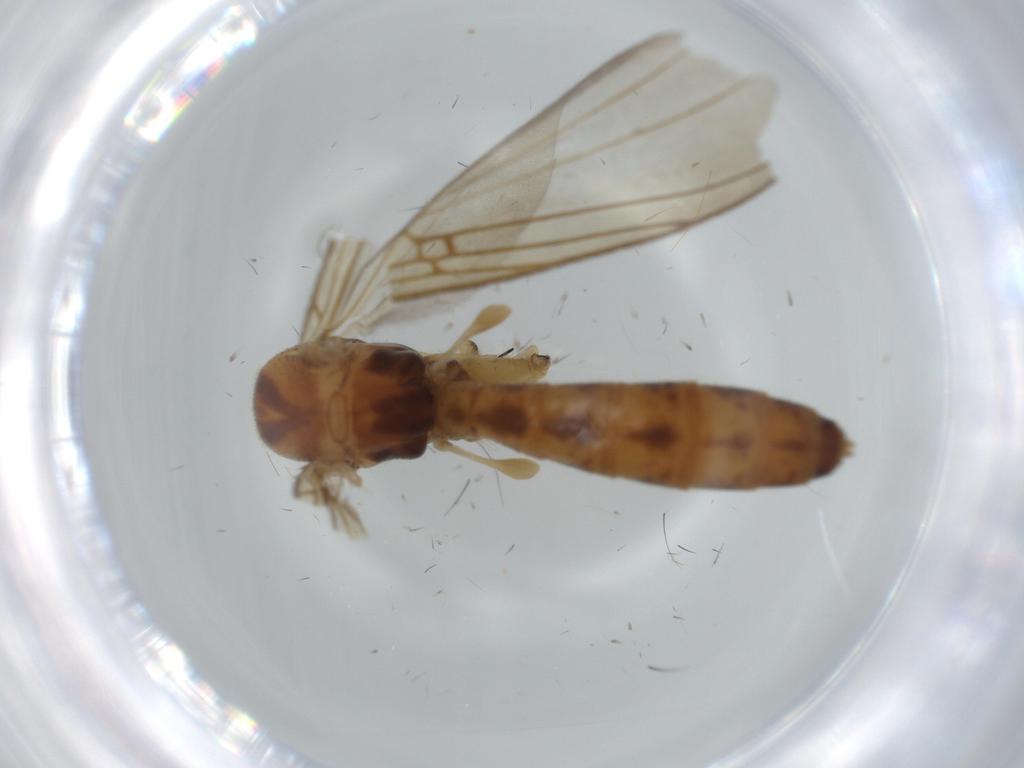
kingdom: Animalia
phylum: Arthropoda
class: Insecta
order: Diptera
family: Mycetophilidae
